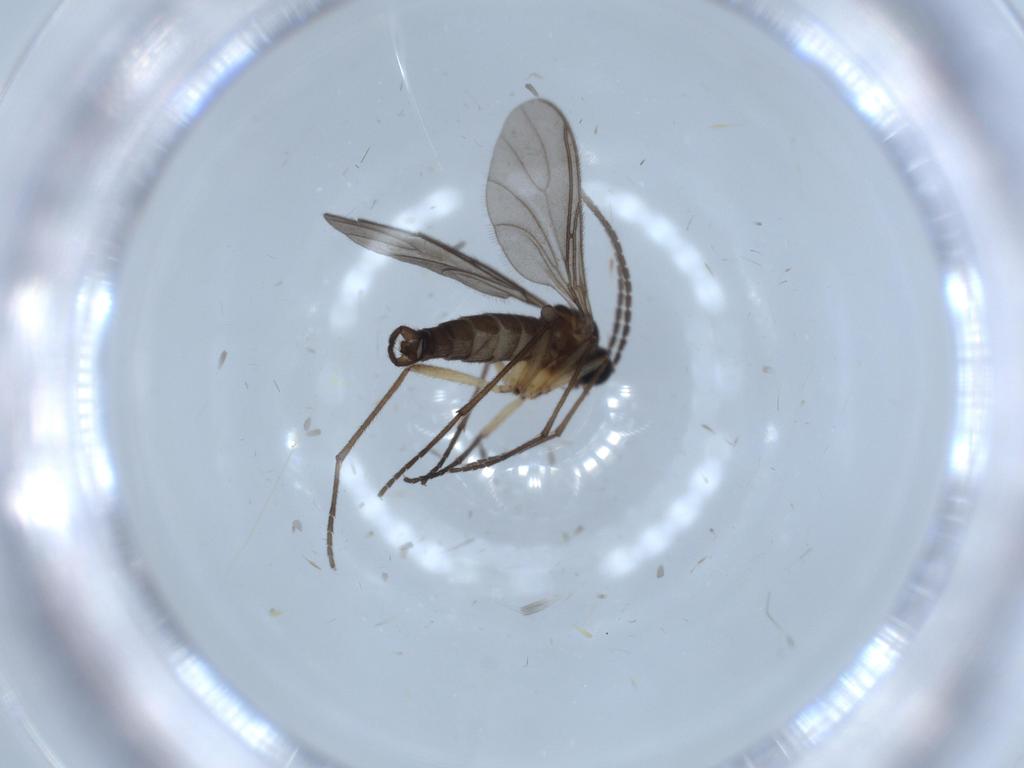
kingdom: Animalia
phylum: Arthropoda
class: Insecta
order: Diptera
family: Sciaridae
